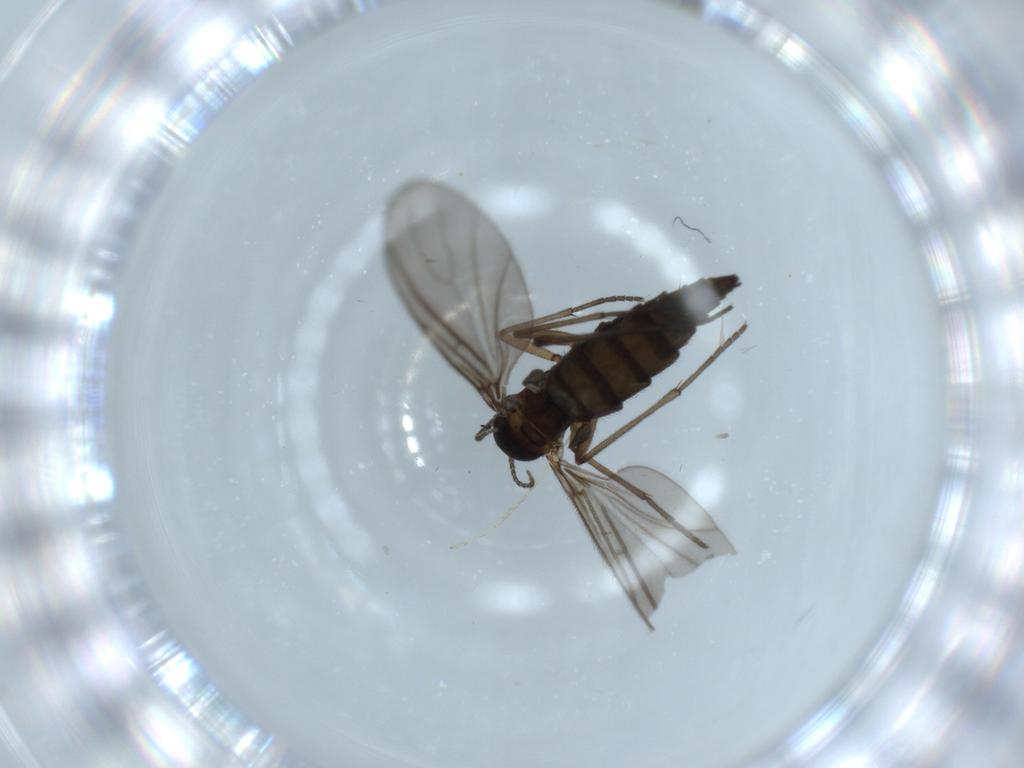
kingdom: Animalia
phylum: Arthropoda
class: Insecta
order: Diptera
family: Sciaridae
